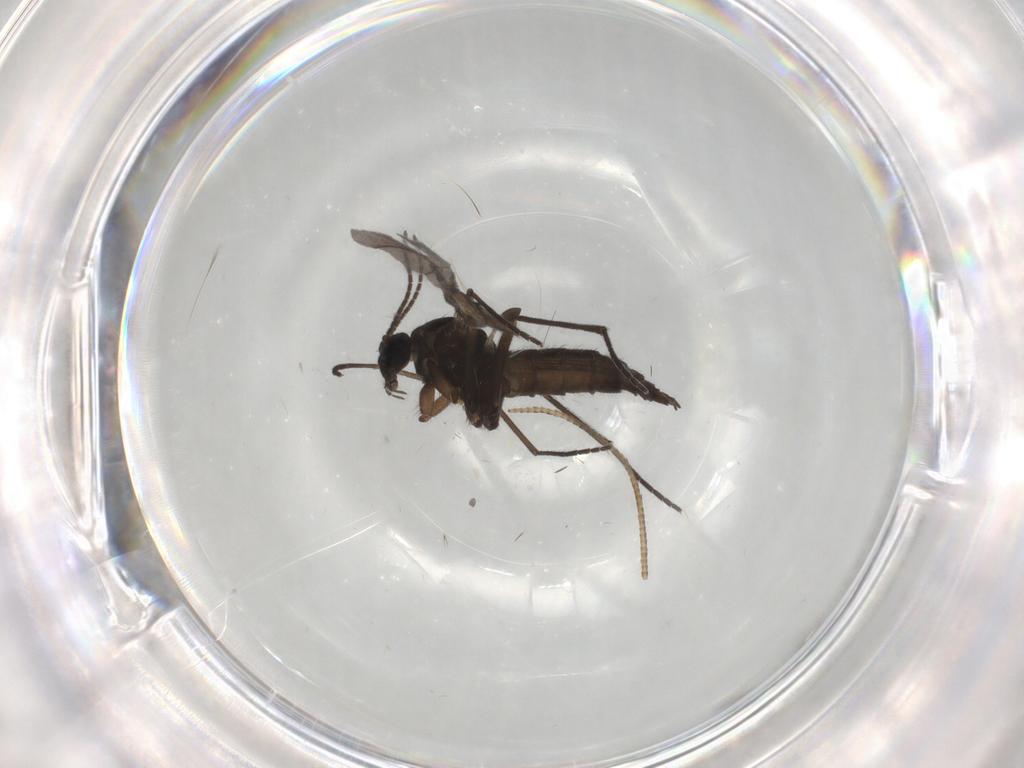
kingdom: Animalia
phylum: Arthropoda
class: Insecta
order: Diptera
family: Sciaridae
